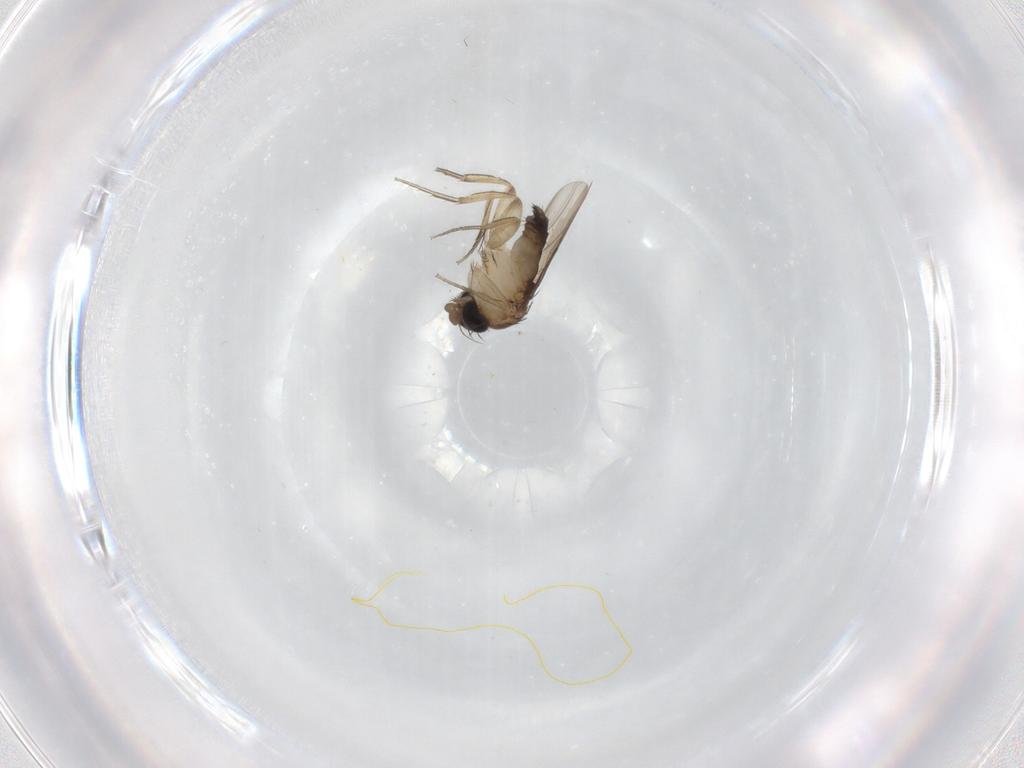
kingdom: Animalia
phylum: Arthropoda
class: Insecta
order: Diptera
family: Phoridae
